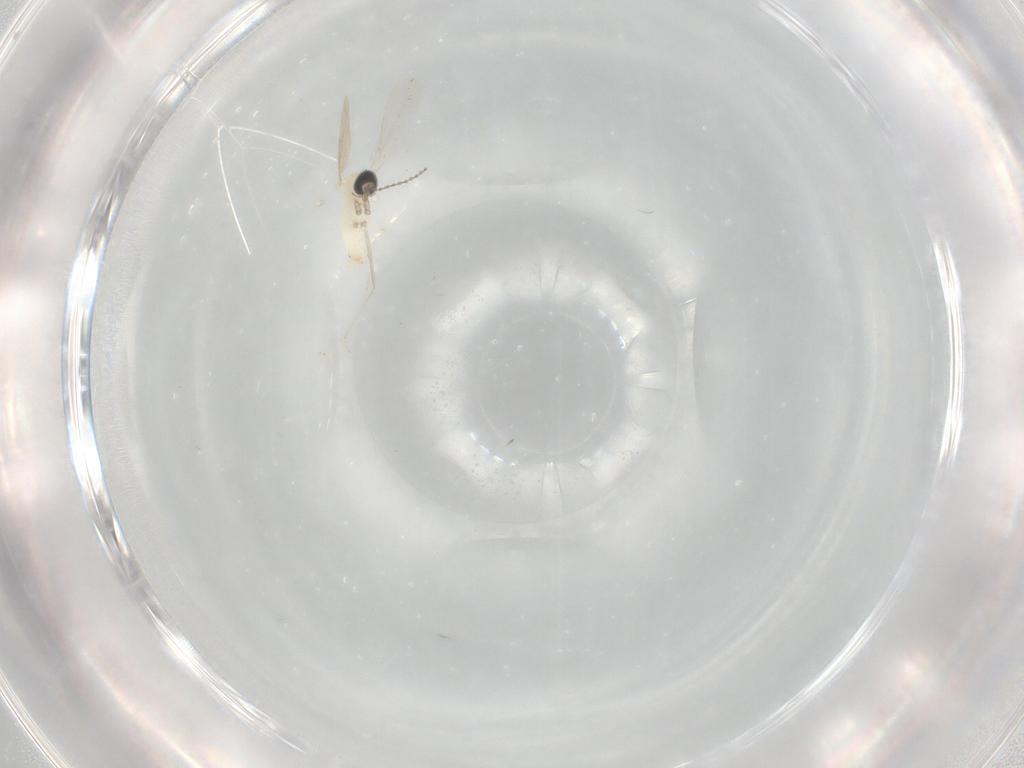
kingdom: Animalia
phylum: Arthropoda
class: Insecta
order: Diptera
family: Cecidomyiidae
